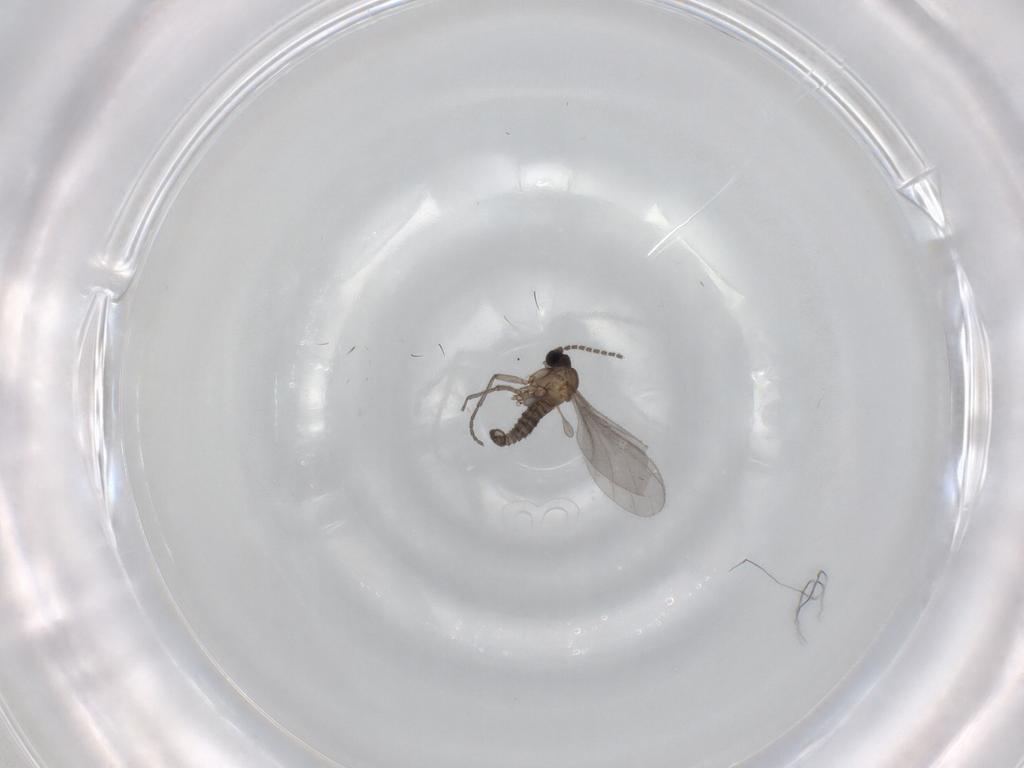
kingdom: Animalia
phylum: Arthropoda
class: Insecta
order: Diptera
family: Sciaridae
